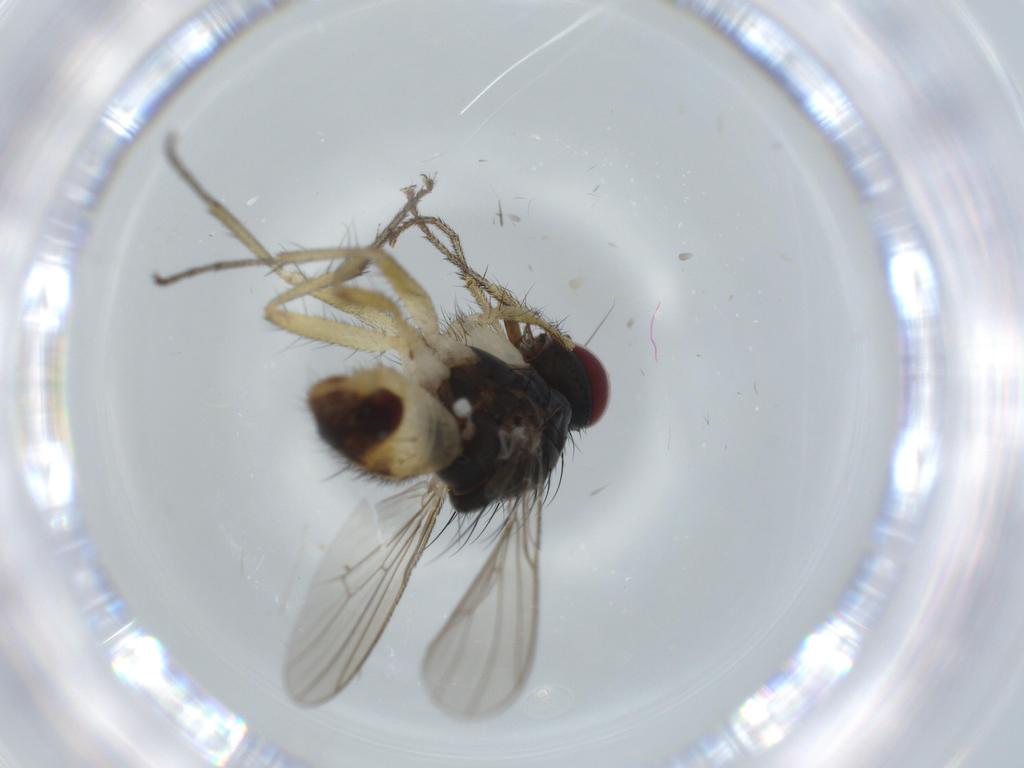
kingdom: Animalia
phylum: Arthropoda
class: Insecta
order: Diptera
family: Muscidae
